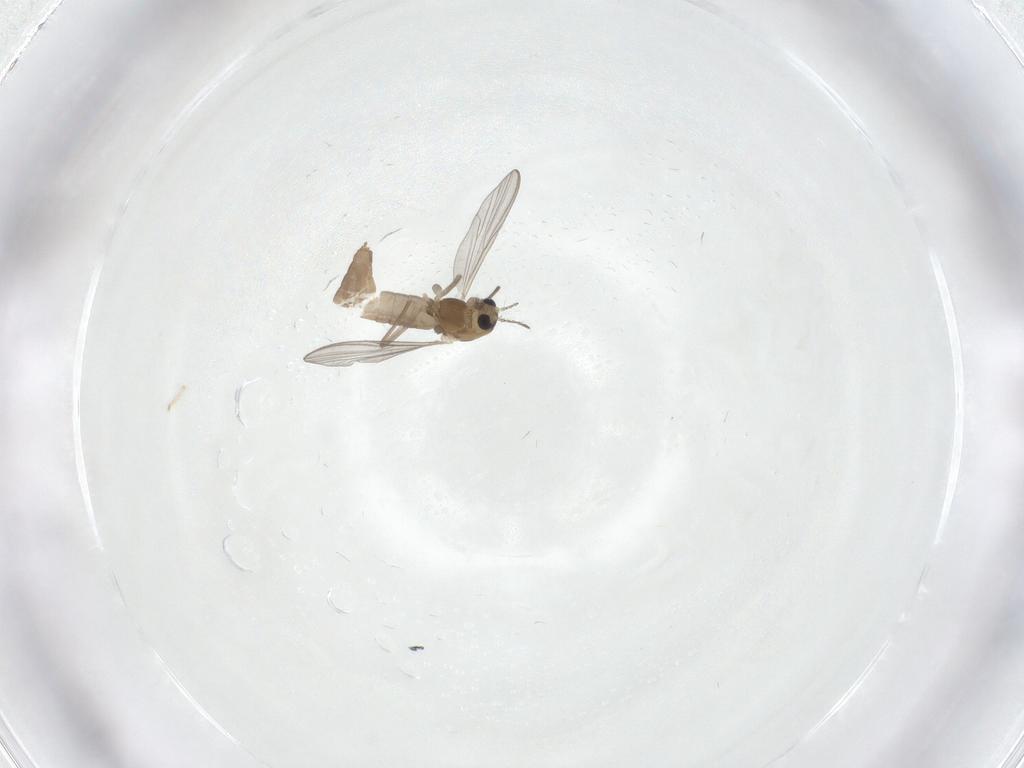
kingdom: Animalia
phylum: Arthropoda
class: Insecta
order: Diptera
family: Chironomidae
